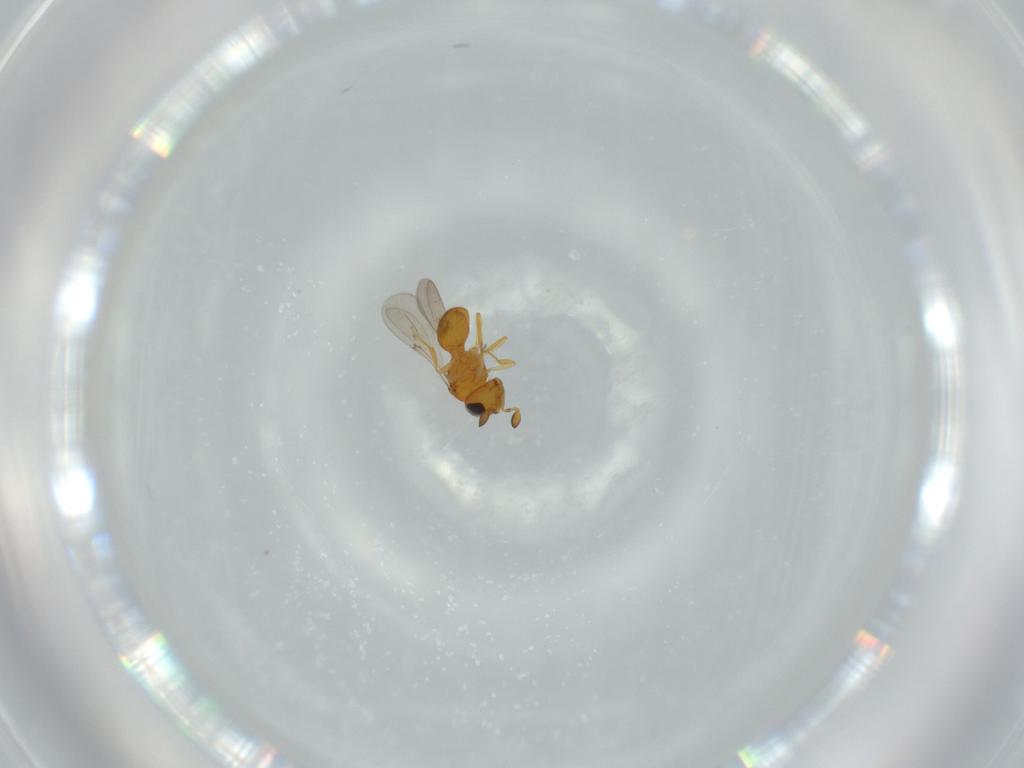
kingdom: Animalia
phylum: Arthropoda
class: Insecta
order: Hymenoptera
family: Scelionidae
